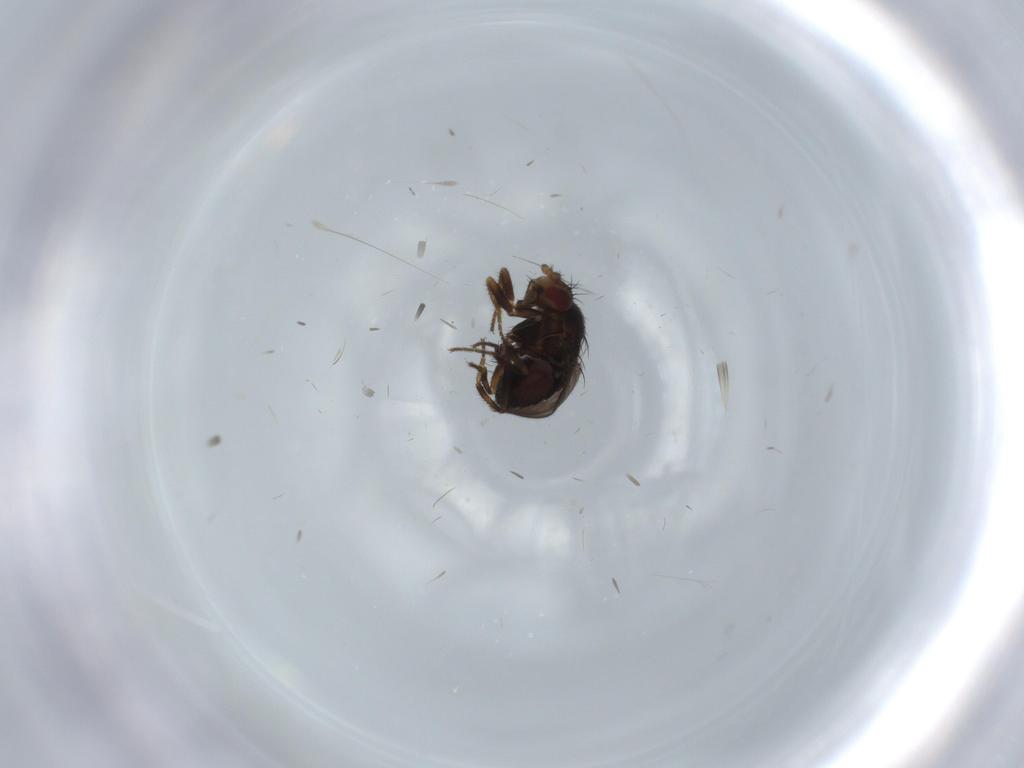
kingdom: Animalia
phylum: Arthropoda
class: Insecta
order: Diptera
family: Sphaeroceridae
